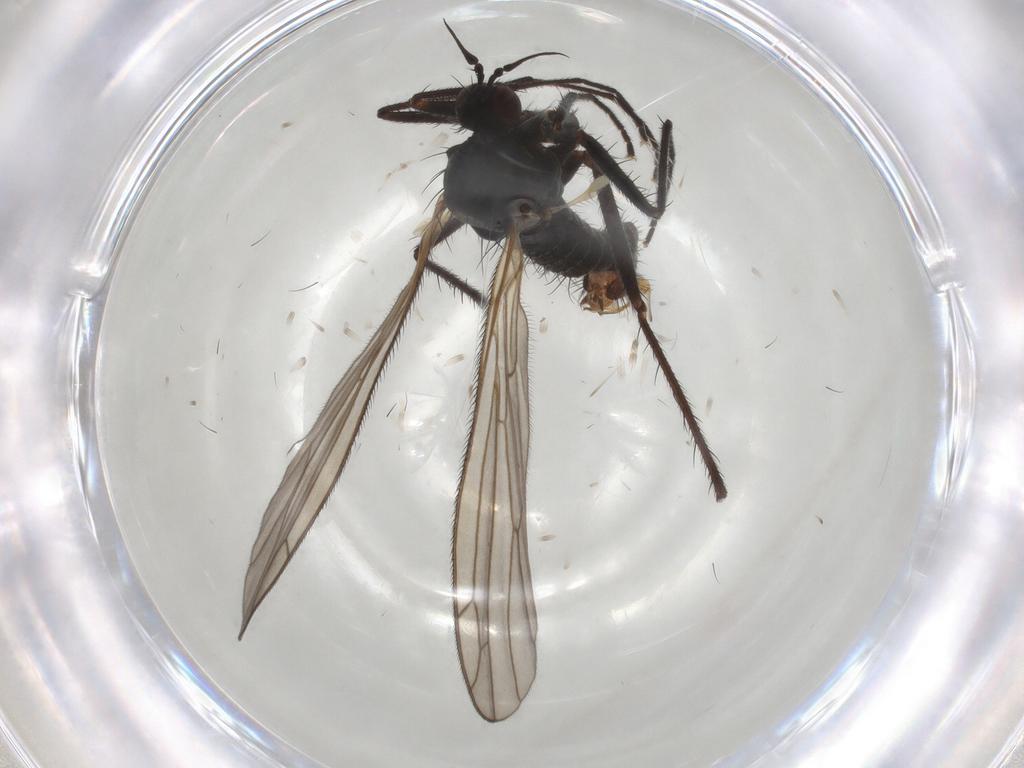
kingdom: Animalia
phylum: Arthropoda
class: Insecta
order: Diptera
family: Empididae
